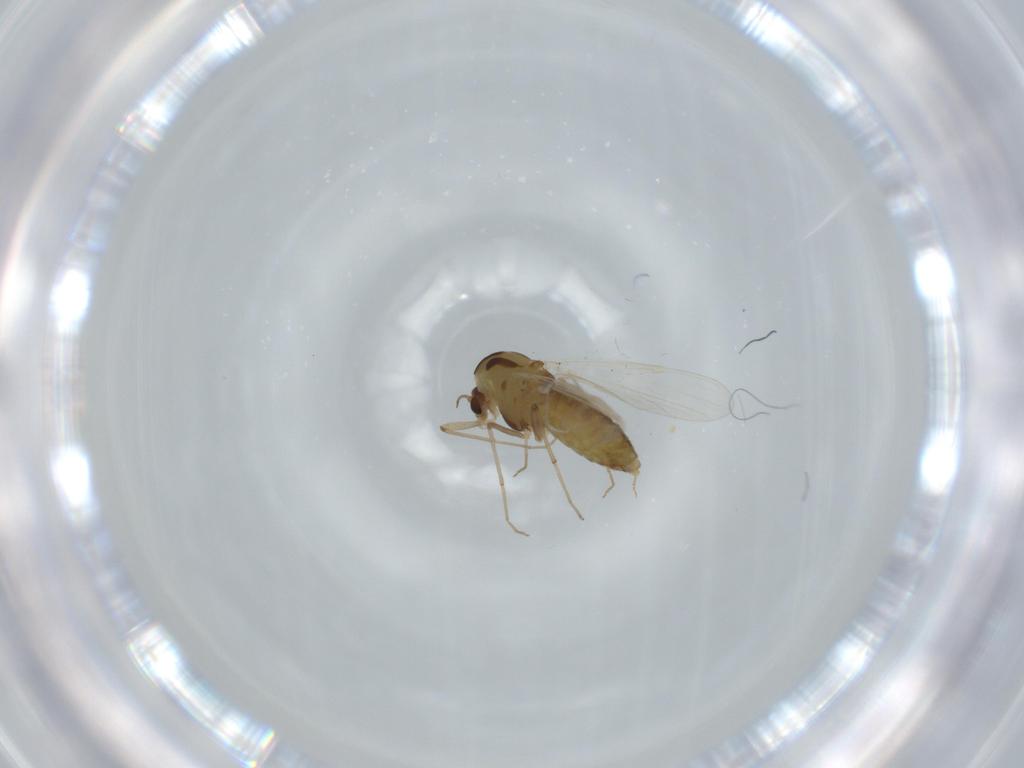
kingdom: Animalia
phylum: Arthropoda
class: Insecta
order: Diptera
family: Chironomidae
